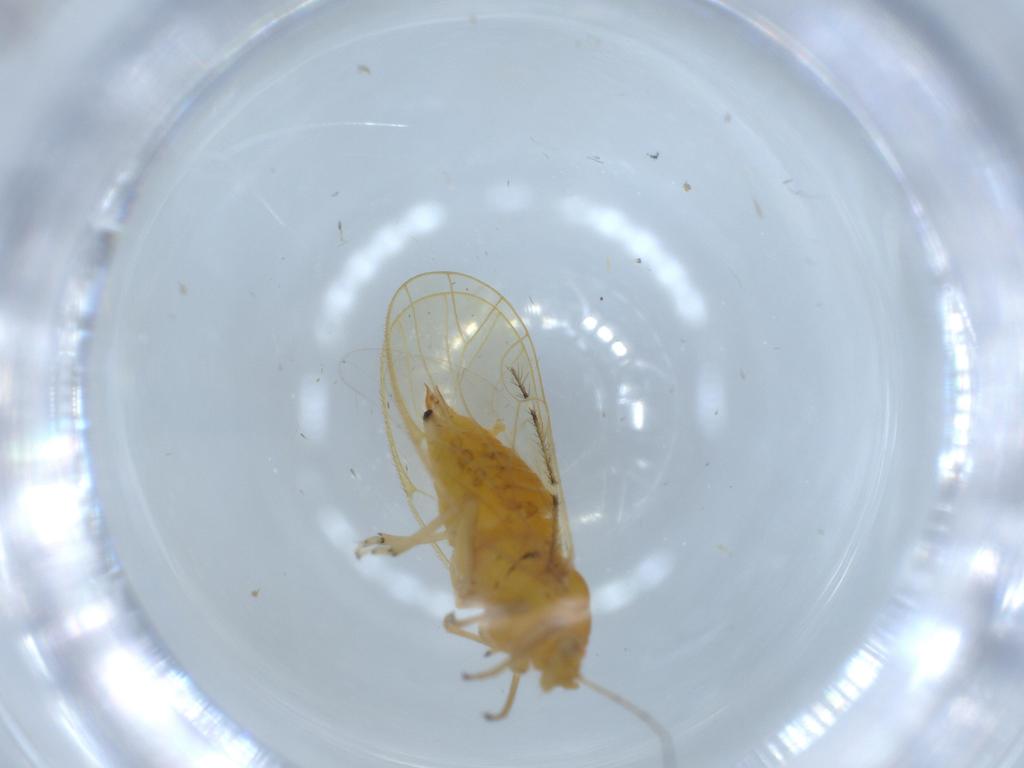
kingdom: Animalia
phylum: Arthropoda
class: Insecta
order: Hemiptera
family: Psyllidae
